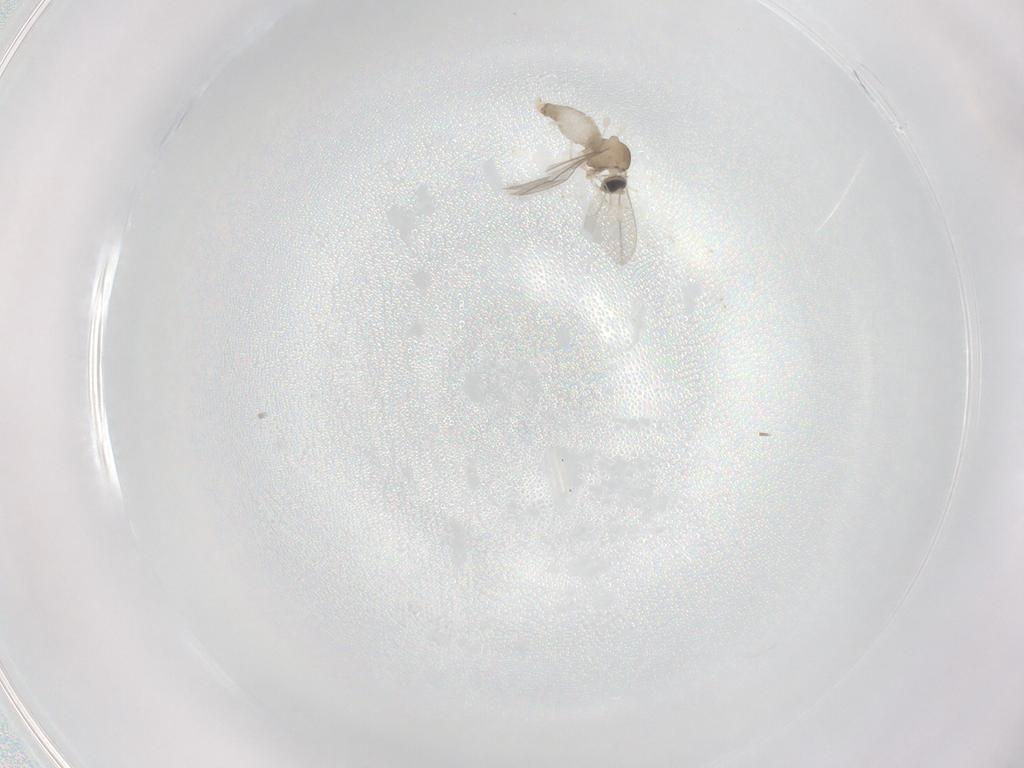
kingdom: Animalia
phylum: Arthropoda
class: Insecta
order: Diptera
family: Cecidomyiidae
